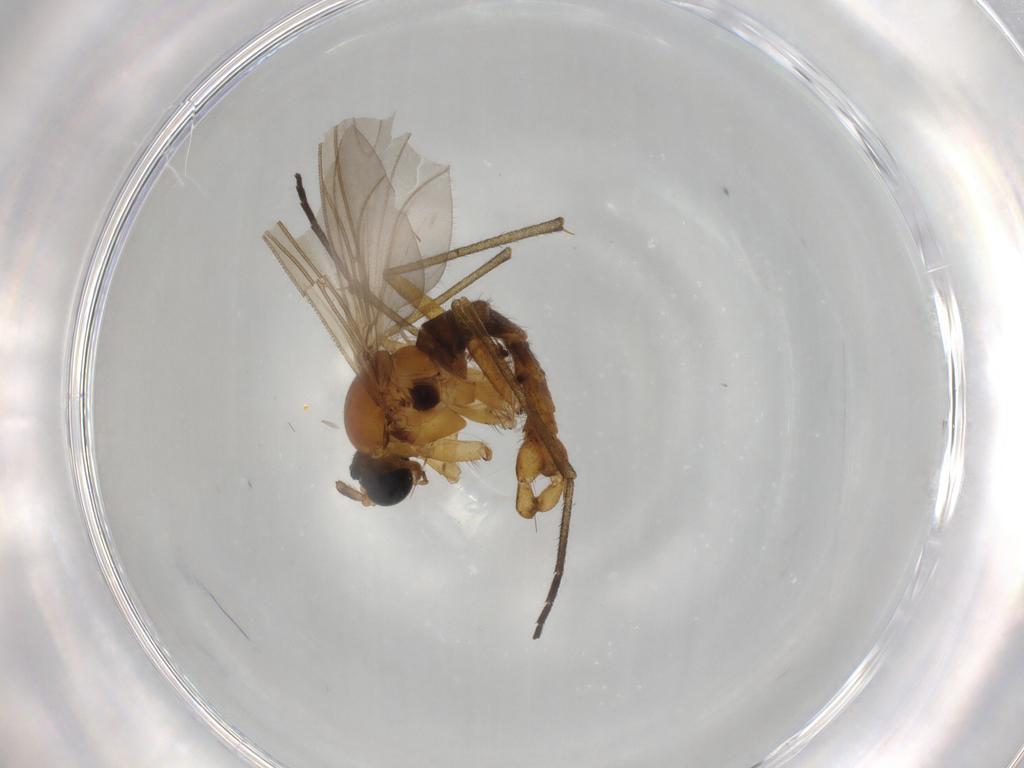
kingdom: Animalia
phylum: Arthropoda
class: Insecta
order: Diptera
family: Sciaridae
